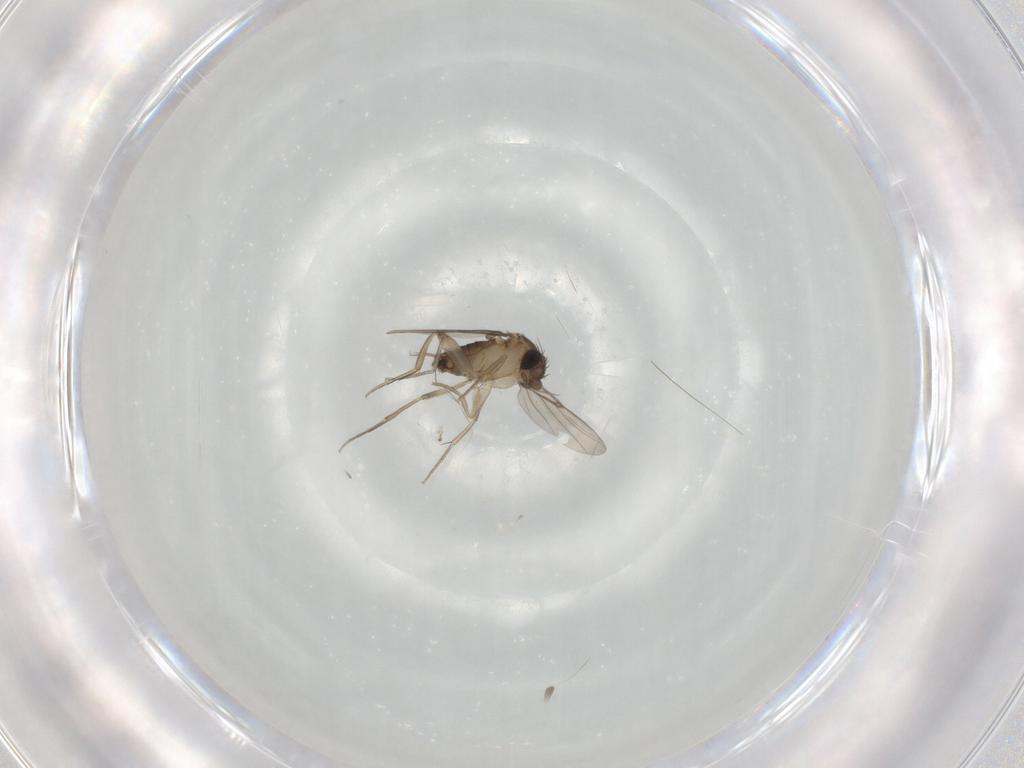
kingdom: Animalia
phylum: Arthropoda
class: Insecta
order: Diptera
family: Phoridae
